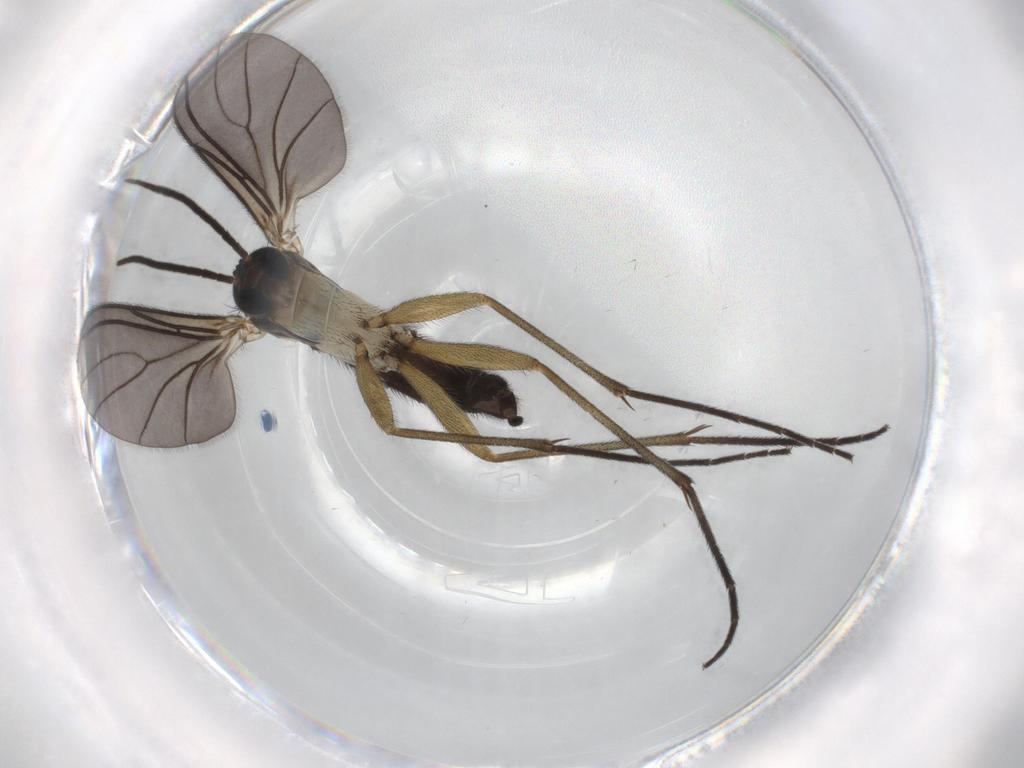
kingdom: Animalia
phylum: Arthropoda
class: Insecta
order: Diptera
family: Sciaridae
